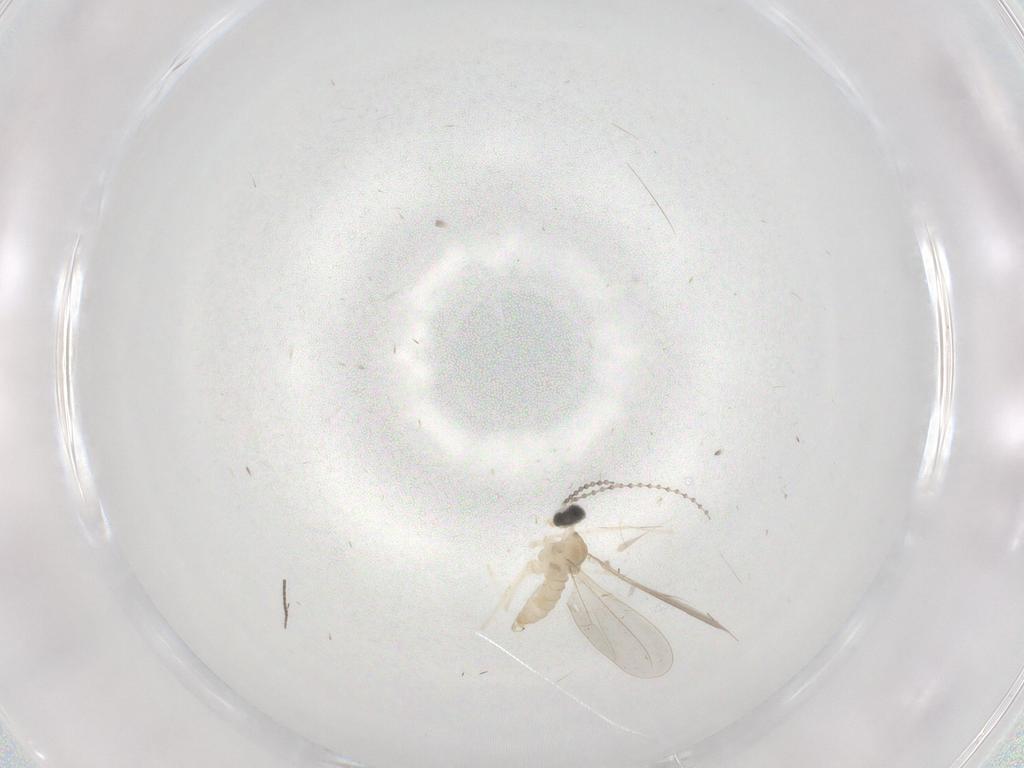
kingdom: Animalia
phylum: Arthropoda
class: Insecta
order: Diptera
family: Cecidomyiidae
